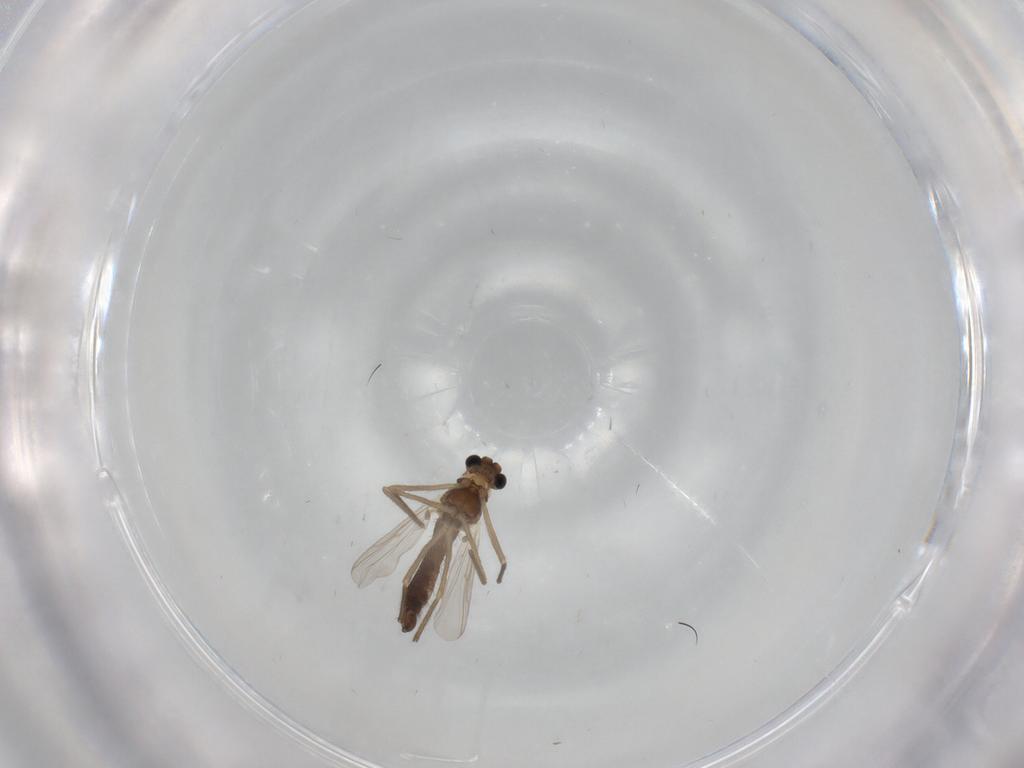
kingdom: Animalia
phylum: Arthropoda
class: Insecta
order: Diptera
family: Chironomidae
